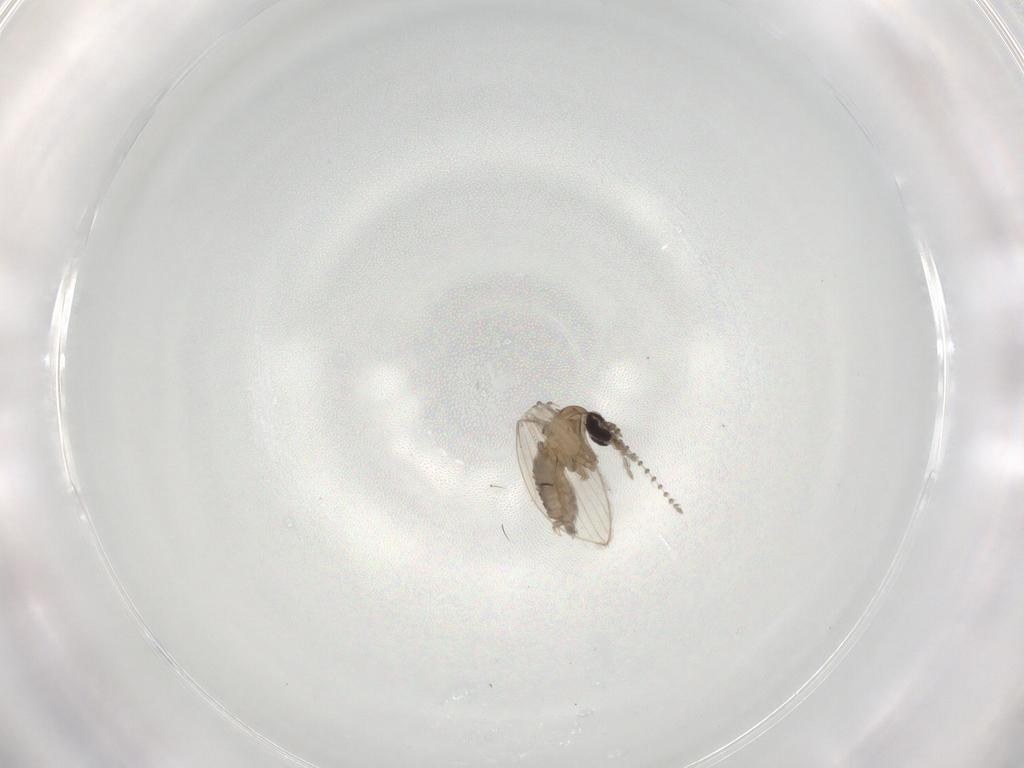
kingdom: Animalia
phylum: Arthropoda
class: Insecta
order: Diptera
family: Psychodidae
